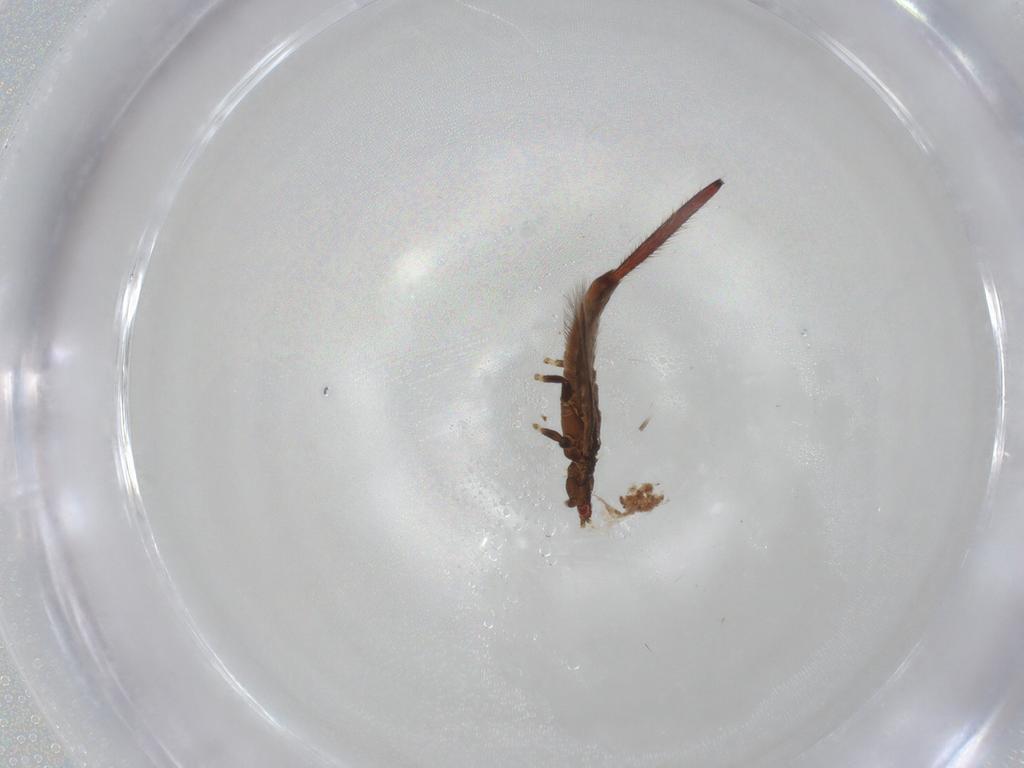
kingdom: Animalia
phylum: Arthropoda
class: Insecta
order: Thysanoptera
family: Phlaeothripidae
